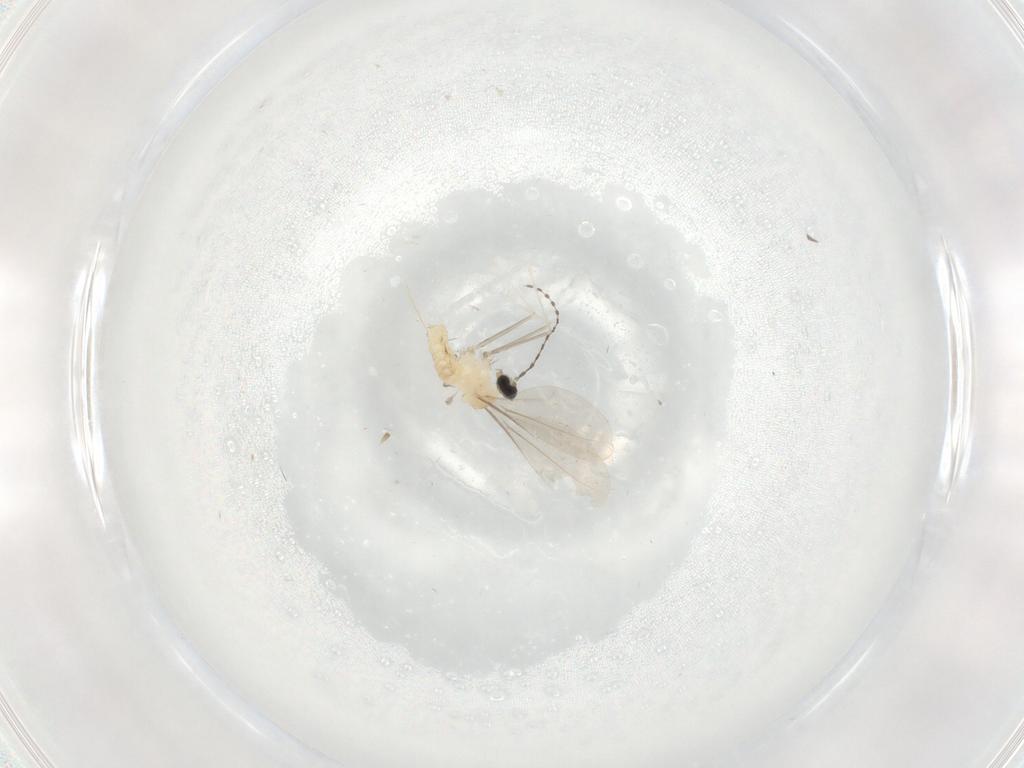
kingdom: Animalia
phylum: Arthropoda
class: Insecta
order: Diptera
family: Cecidomyiidae
